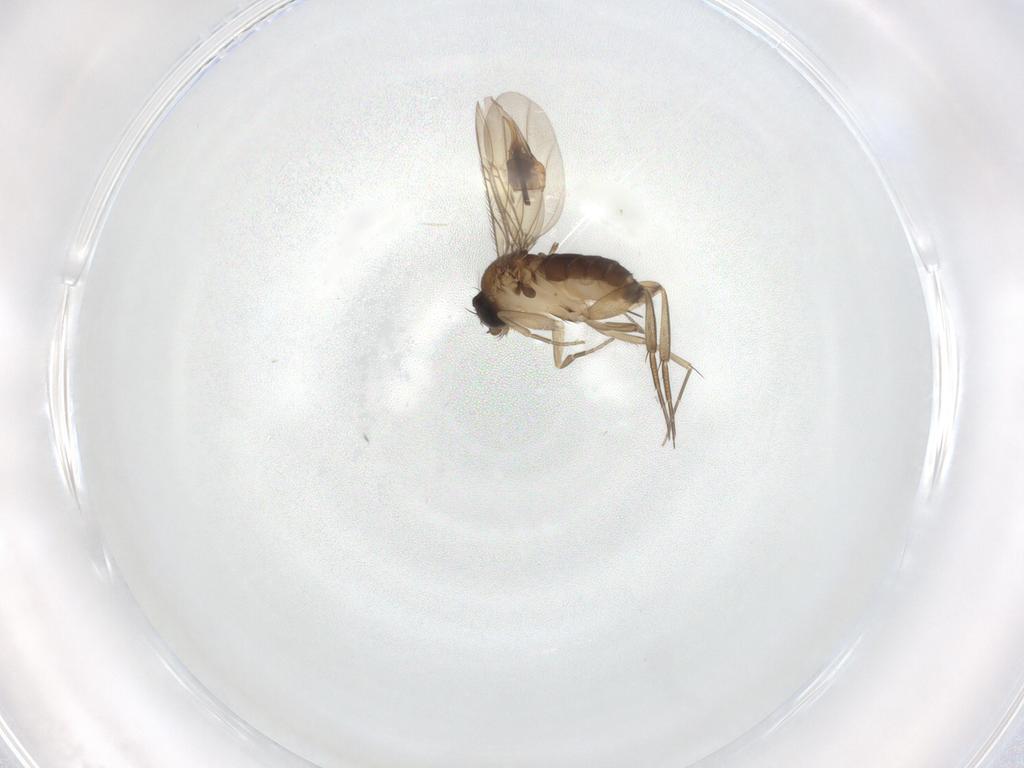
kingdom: Animalia
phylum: Arthropoda
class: Insecta
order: Diptera
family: Phoridae
